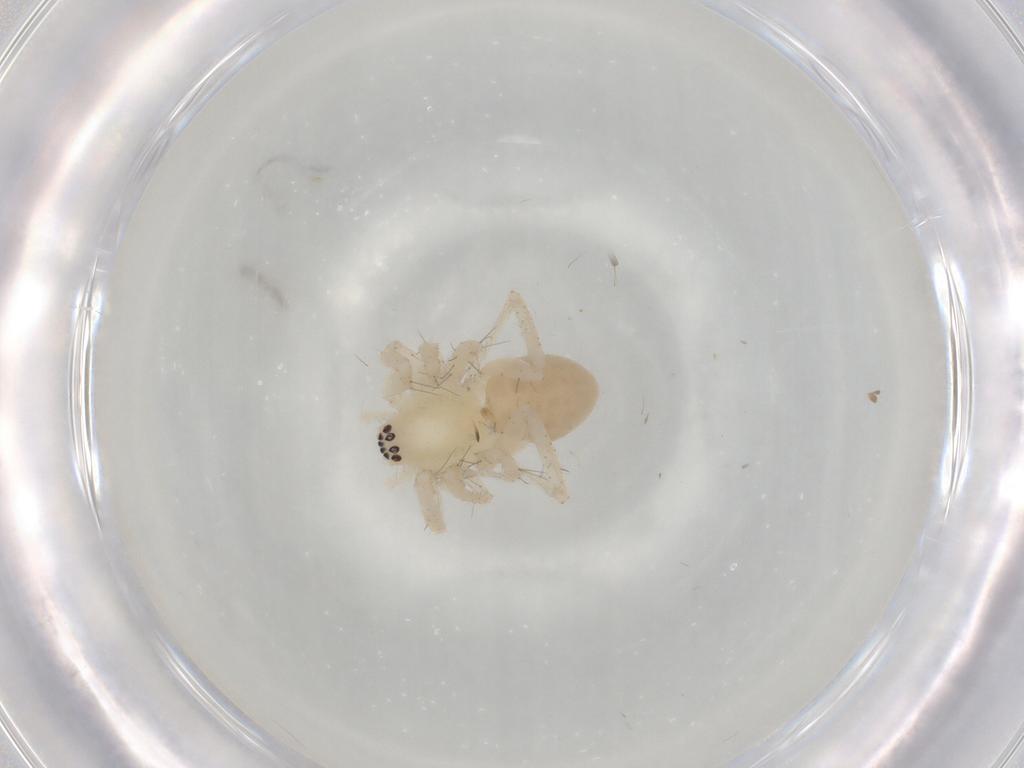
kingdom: Animalia
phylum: Arthropoda
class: Arachnida
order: Araneae
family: Anyphaenidae
